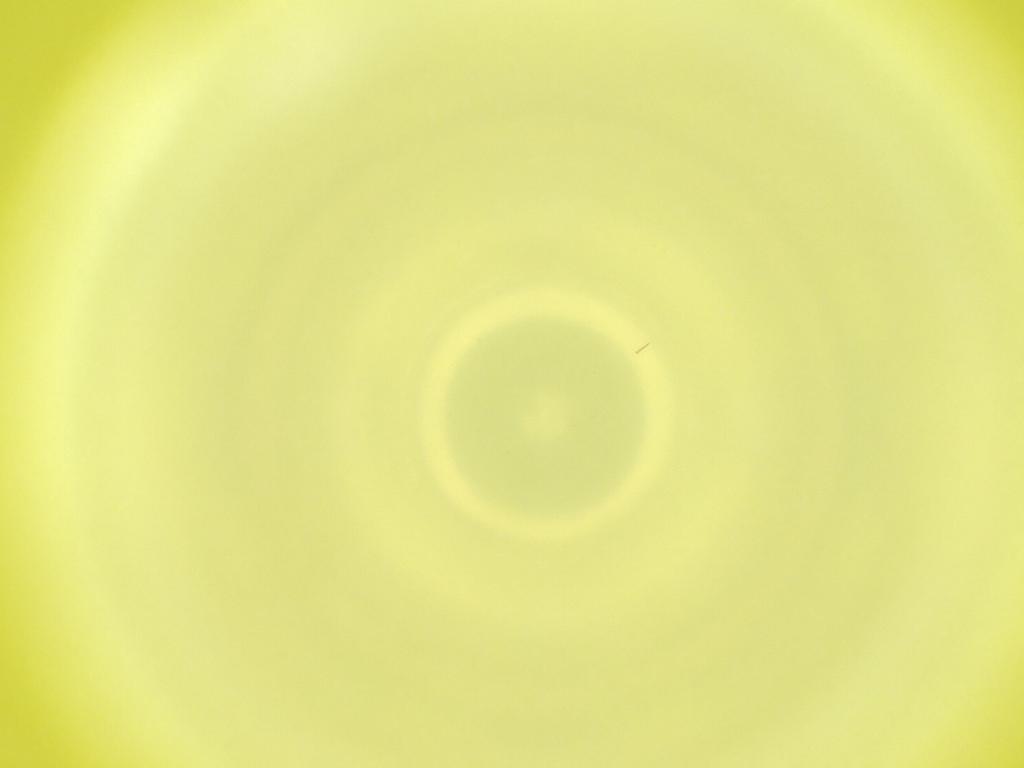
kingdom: Animalia
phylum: Arthropoda
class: Insecta
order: Diptera
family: Cecidomyiidae
